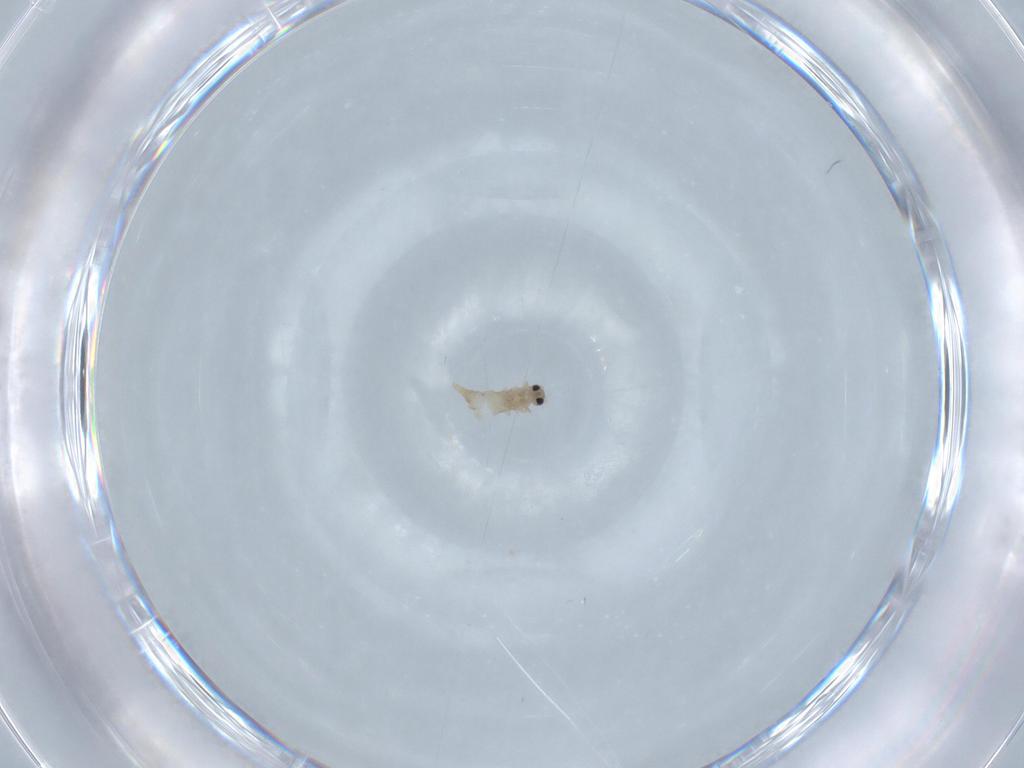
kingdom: Animalia
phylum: Arthropoda
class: Insecta
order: Diptera
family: Cecidomyiidae
